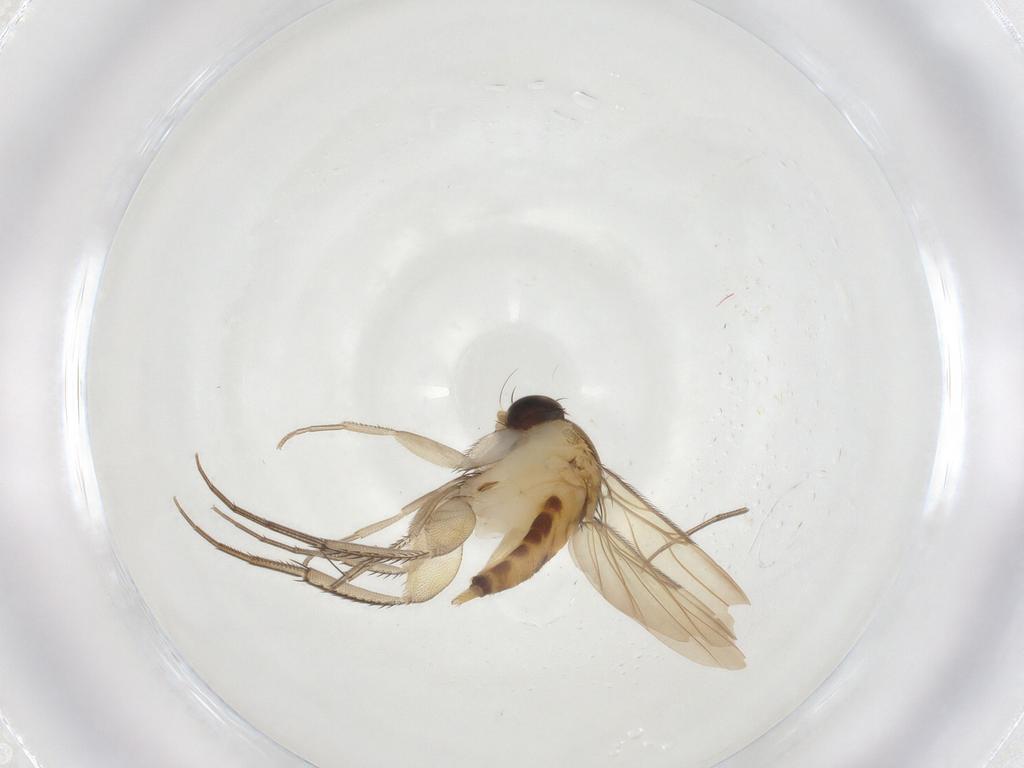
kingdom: Animalia
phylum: Arthropoda
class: Insecta
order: Diptera
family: Phoridae
